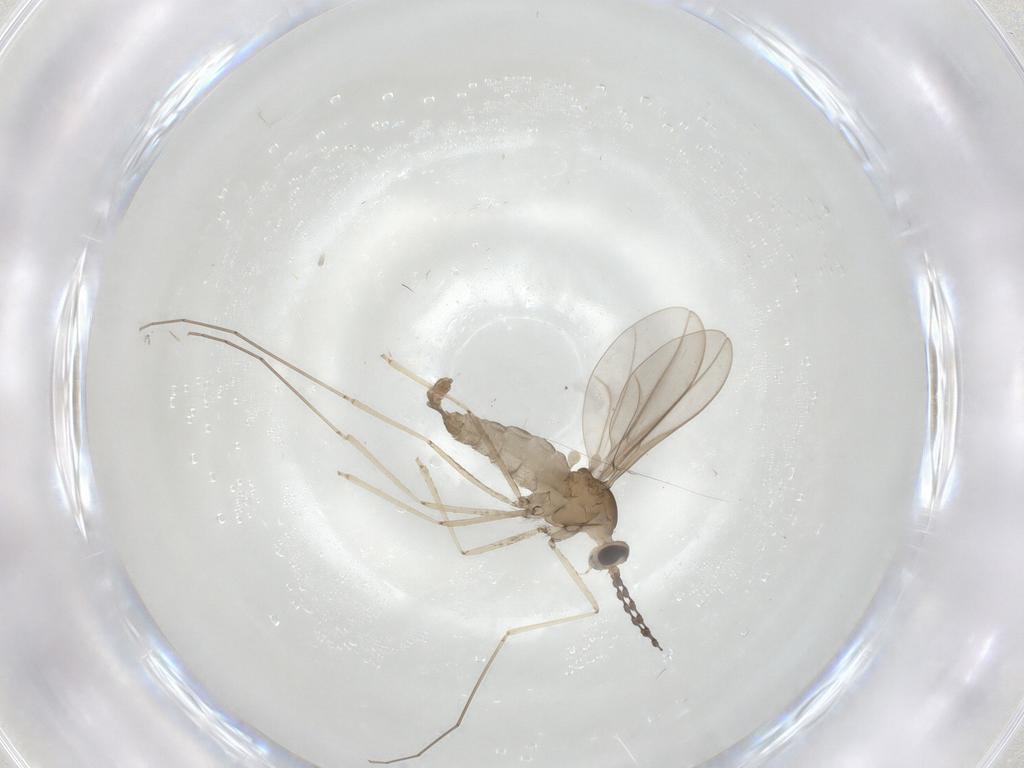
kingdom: Animalia
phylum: Arthropoda
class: Insecta
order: Diptera
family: Cecidomyiidae
